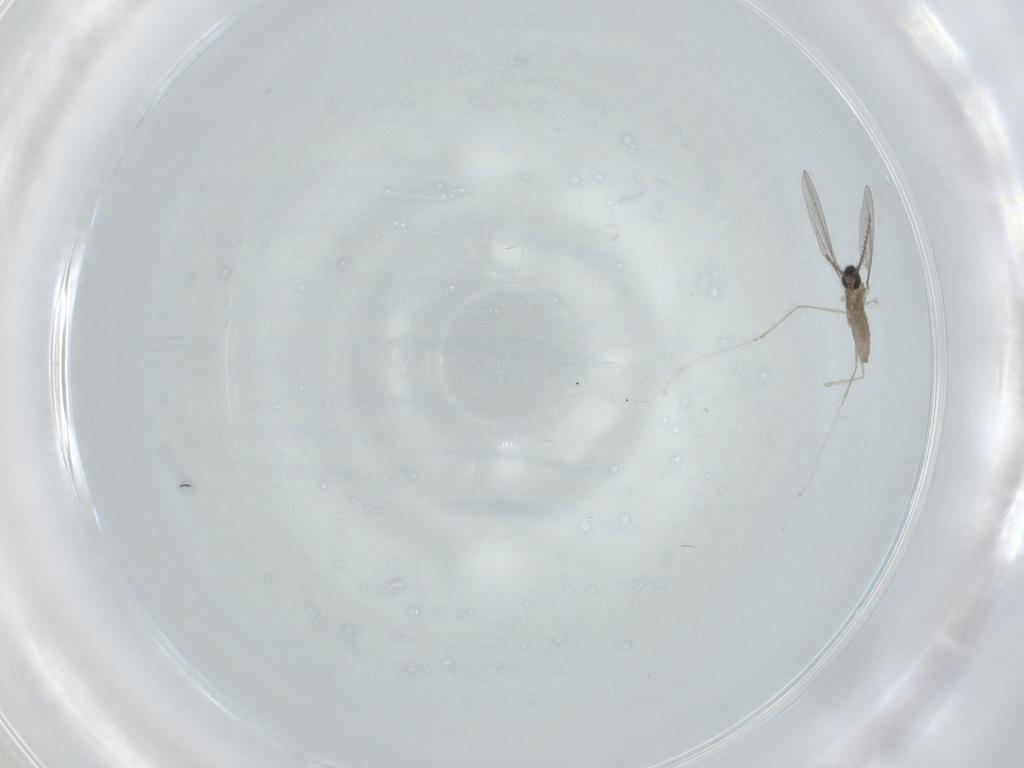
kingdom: Animalia
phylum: Arthropoda
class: Insecta
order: Diptera
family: Cecidomyiidae
